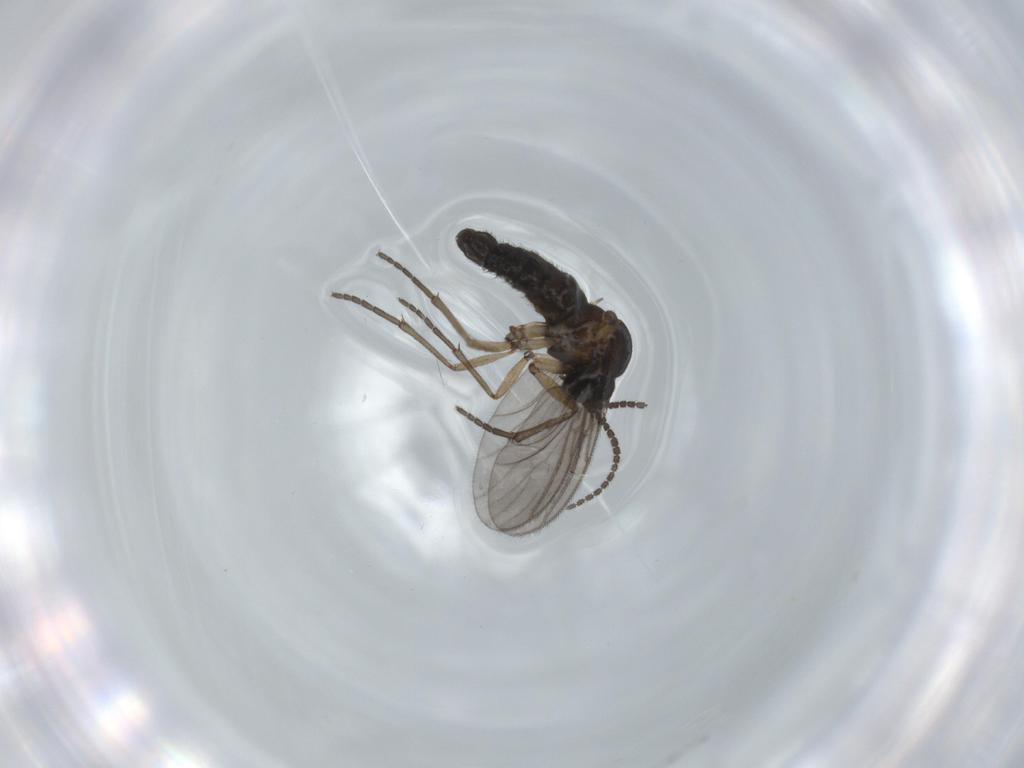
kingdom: Animalia
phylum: Arthropoda
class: Insecta
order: Diptera
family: Sciaridae
